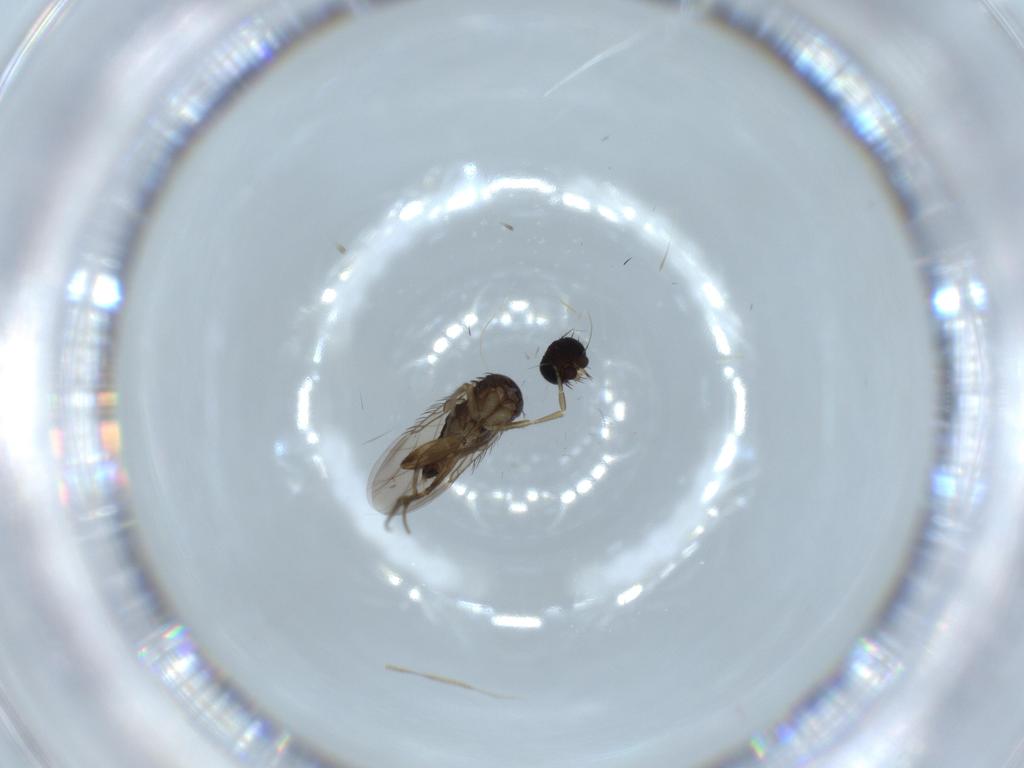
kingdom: Animalia
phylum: Arthropoda
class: Insecta
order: Diptera
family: Phoridae
